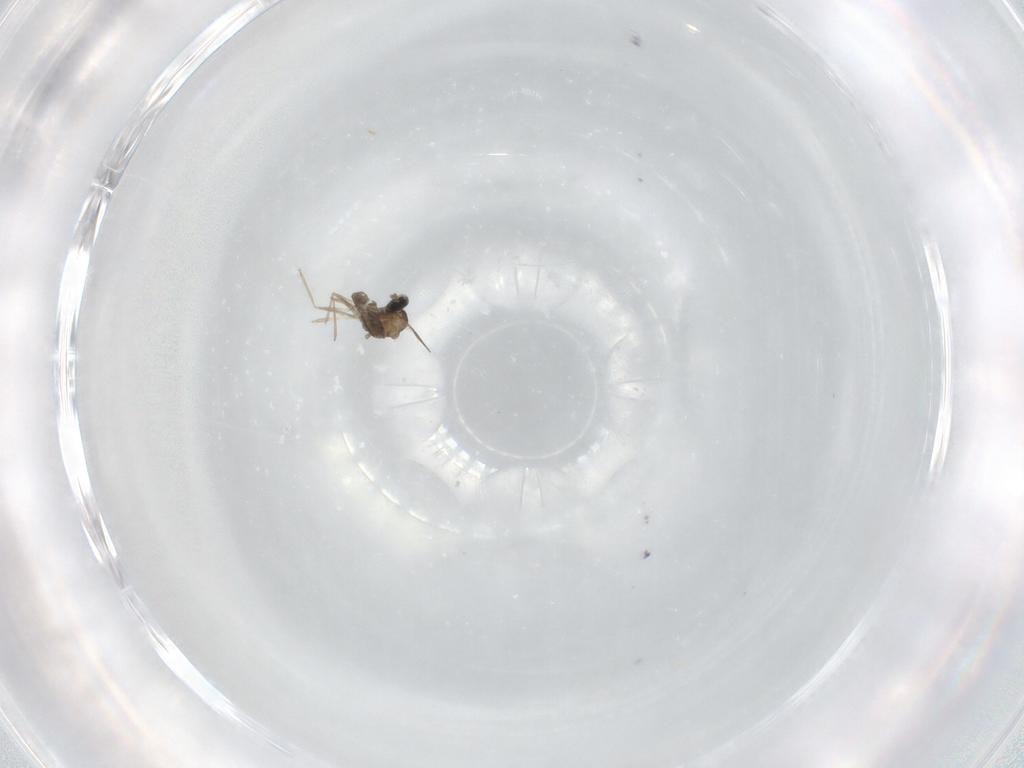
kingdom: Animalia
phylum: Arthropoda
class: Insecta
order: Diptera
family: Cecidomyiidae
